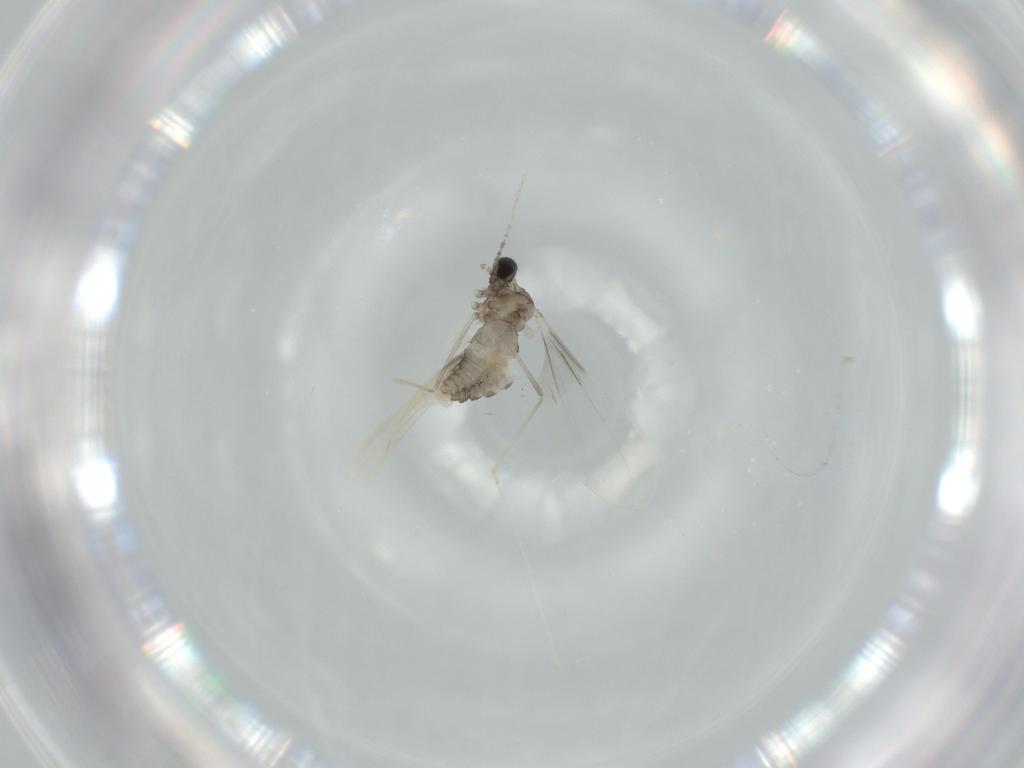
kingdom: Animalia
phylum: Arthropoda
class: Insecta
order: Diptera
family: Cecidomyiidae
